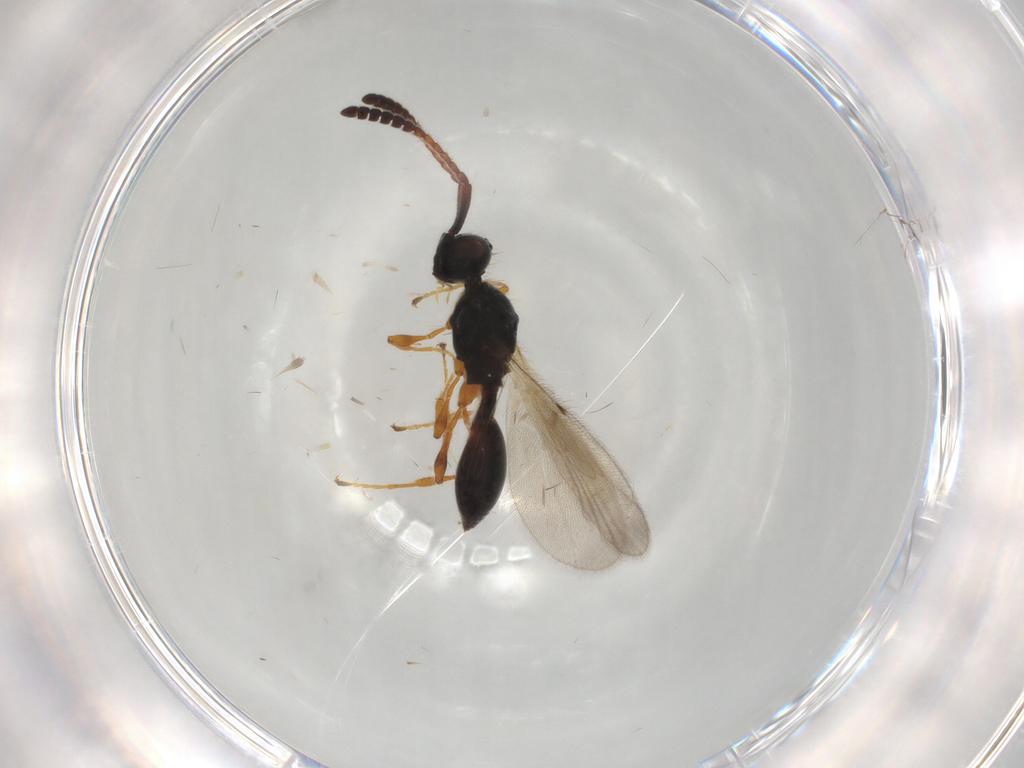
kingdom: Animalia
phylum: Arthropoda
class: Insecta
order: Hymenoptera
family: Diapriidae
